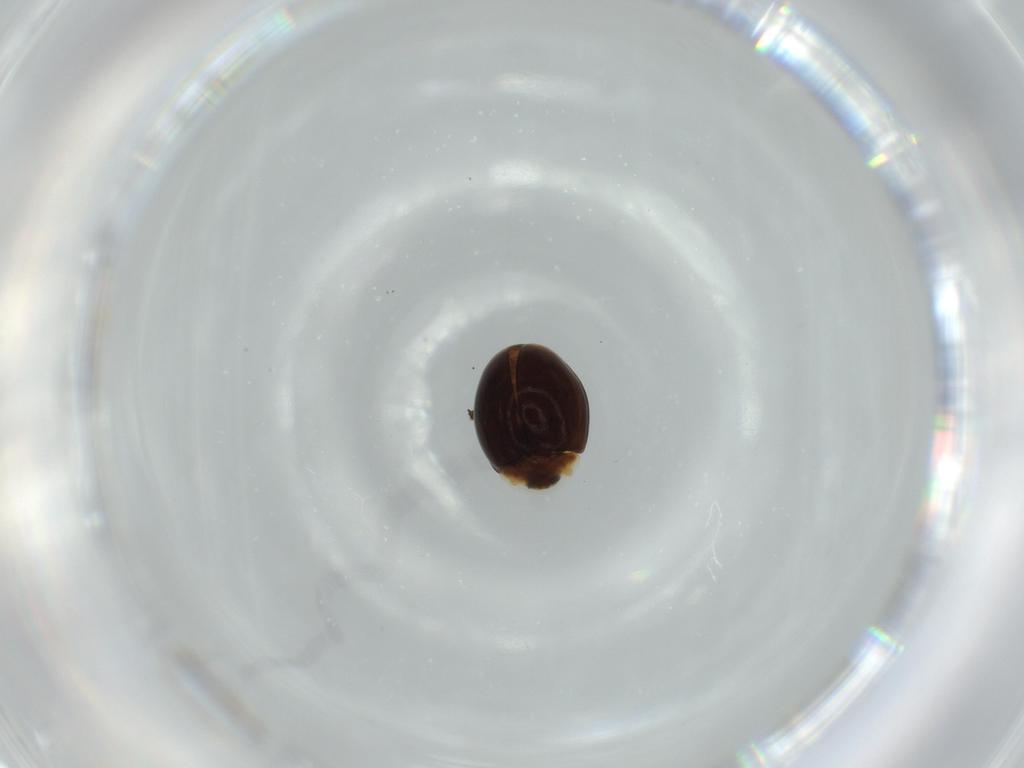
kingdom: Animalia
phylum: Arthropoda
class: Insecta
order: Coleoptera
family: Corylophidae
